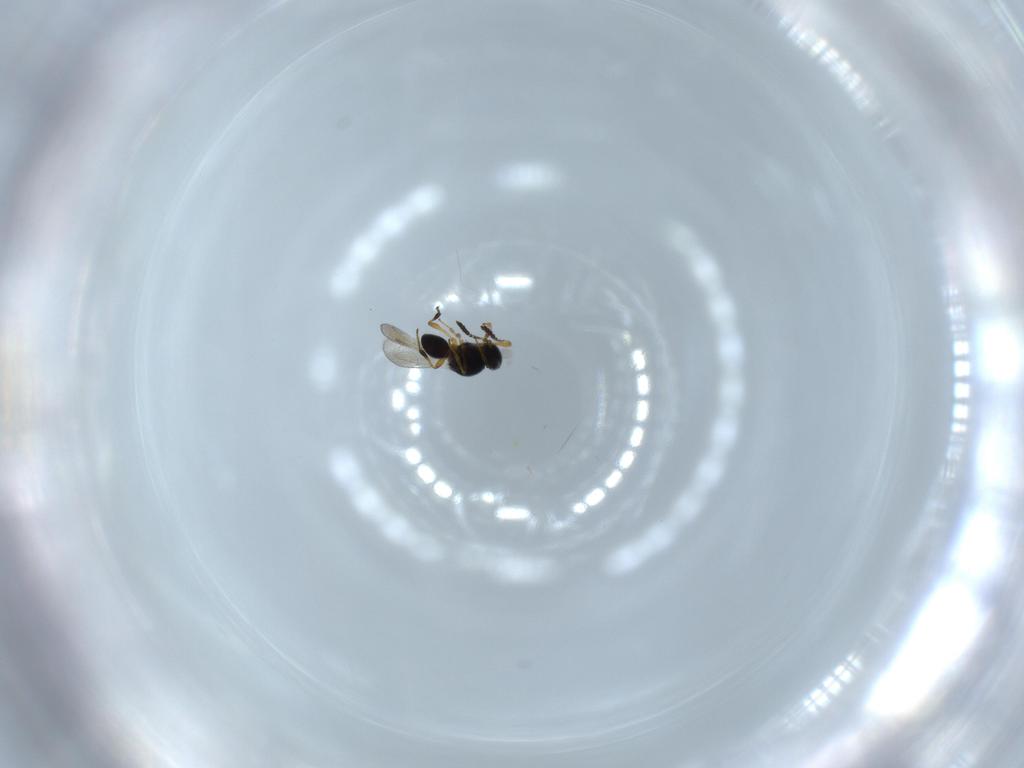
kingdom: Animalia
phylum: Arthropoda
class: Insecta
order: Hymenoptera
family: Platygastridae
